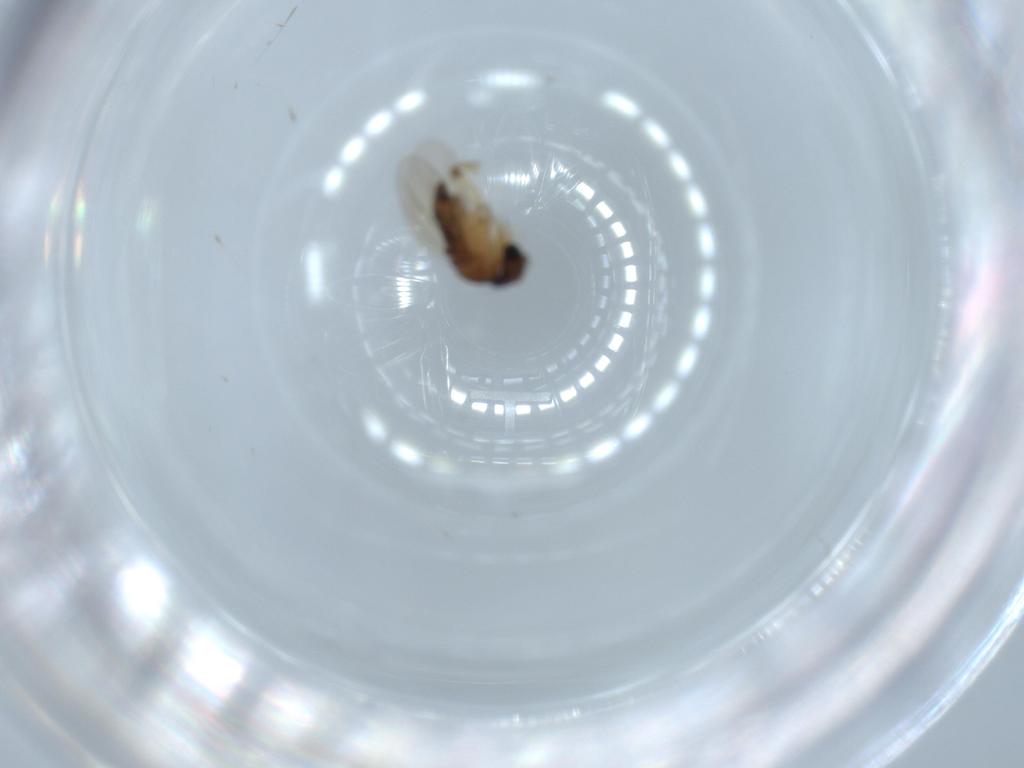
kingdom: Animalia
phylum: Arthropoda
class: Insecta
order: Diptera
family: Phoridae
